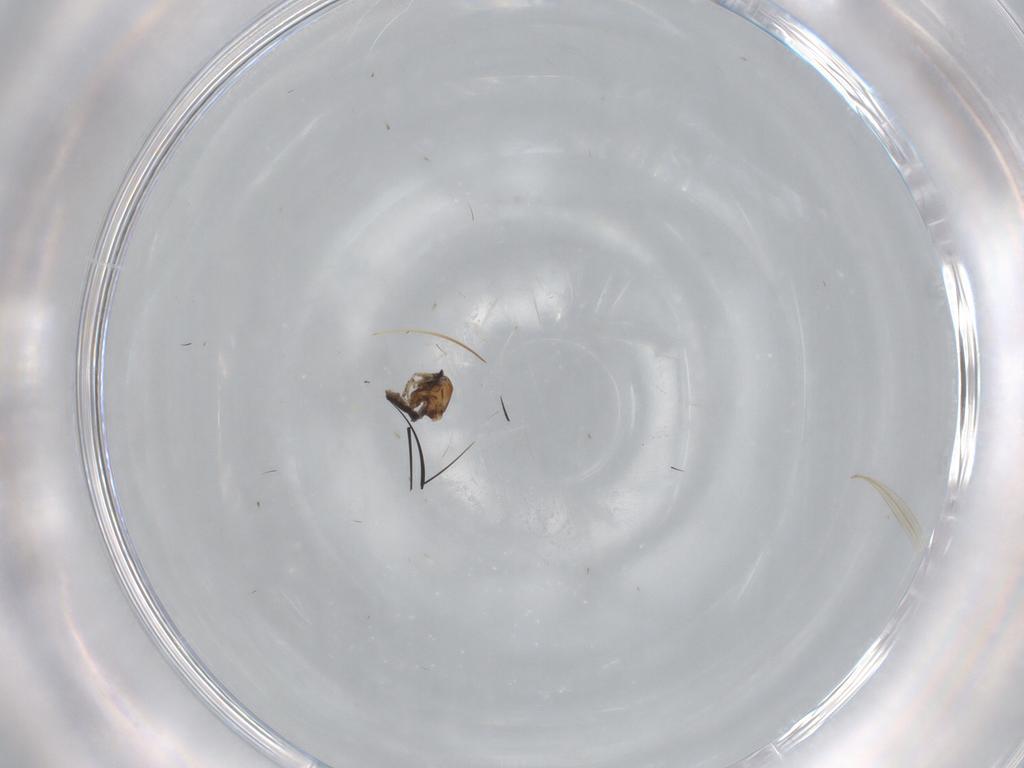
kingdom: Animalia
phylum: Arthropoda
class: Insecta
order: Diptera
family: Ceratopogonidae
